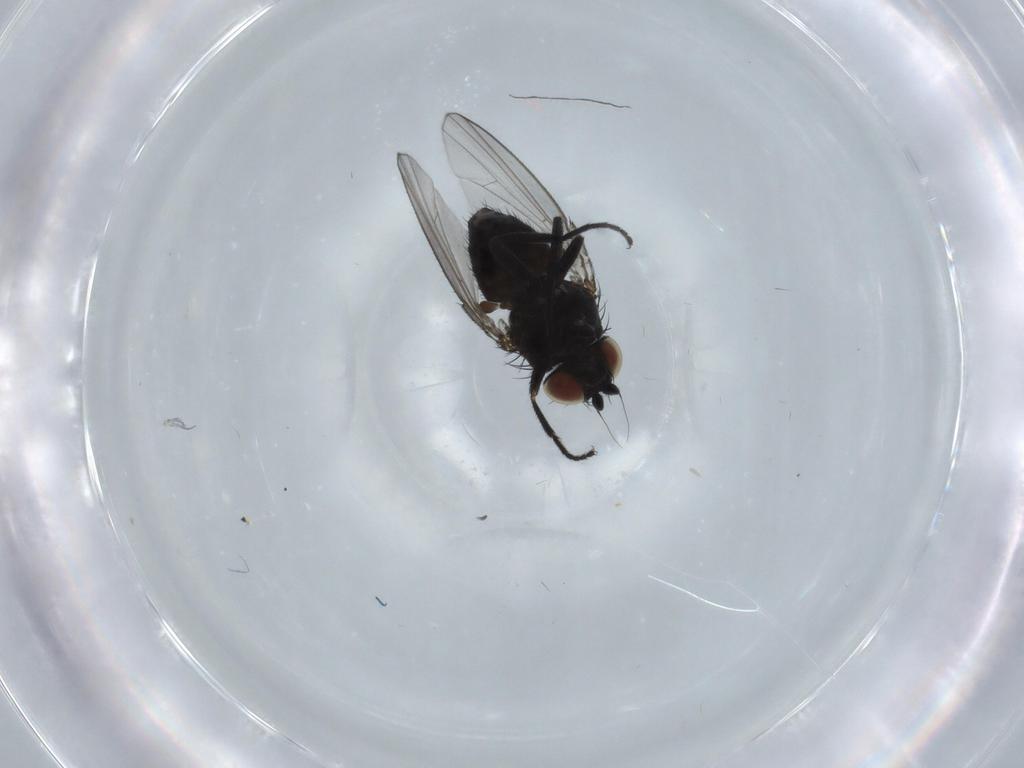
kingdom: Animalia
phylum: Arthropoda
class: Insecta
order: Diptera
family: Milichiidae
